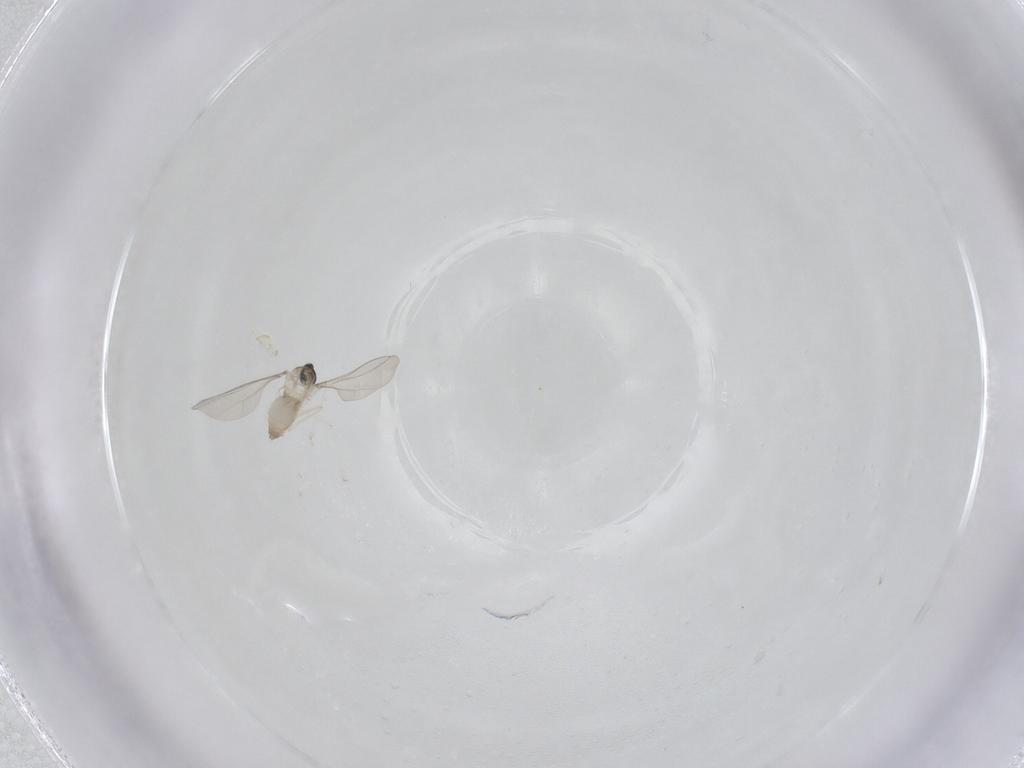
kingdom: Animalia
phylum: Arthropoda
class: Insecta
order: Diptera
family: Cecidomyiidae
